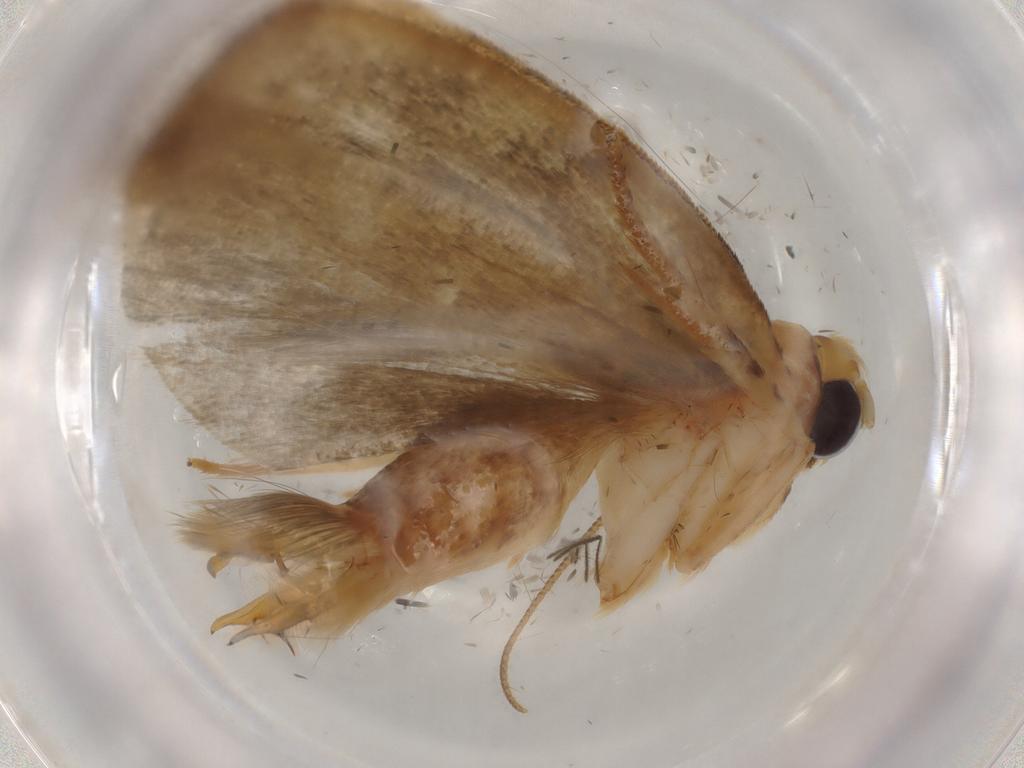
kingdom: Animalia
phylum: Arthropoda
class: Insecta
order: Lepidoptera
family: Depressariidae
